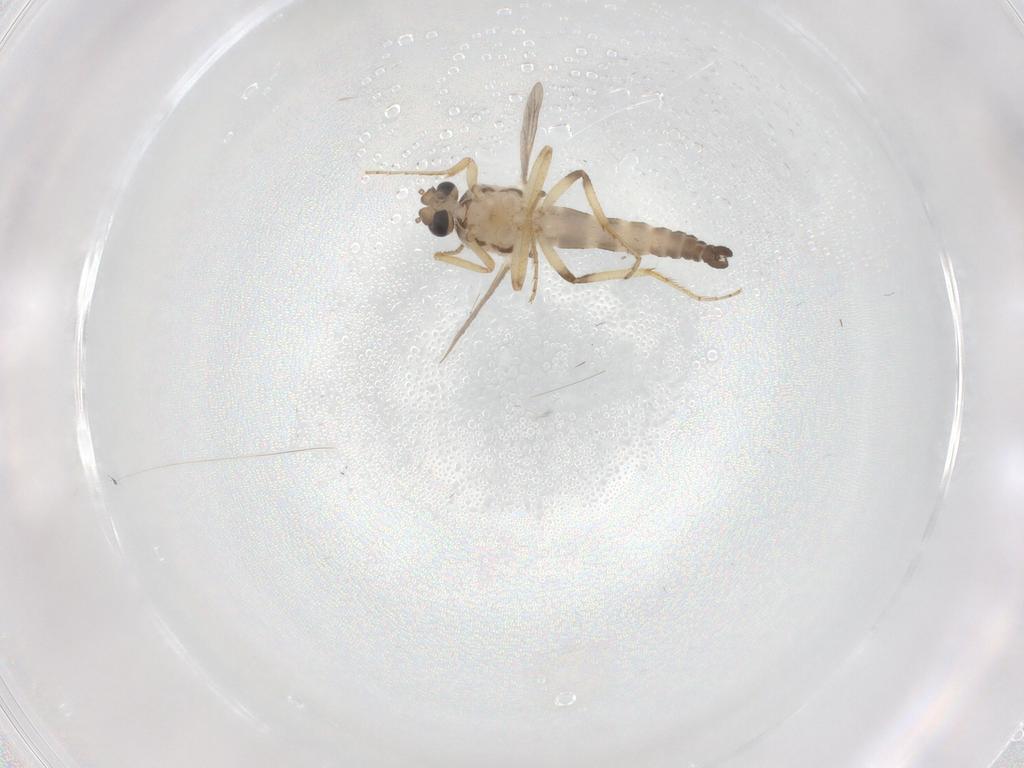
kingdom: Animalia
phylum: Arthropoda
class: Insecta
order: Diptera
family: Ceratopogonidae
